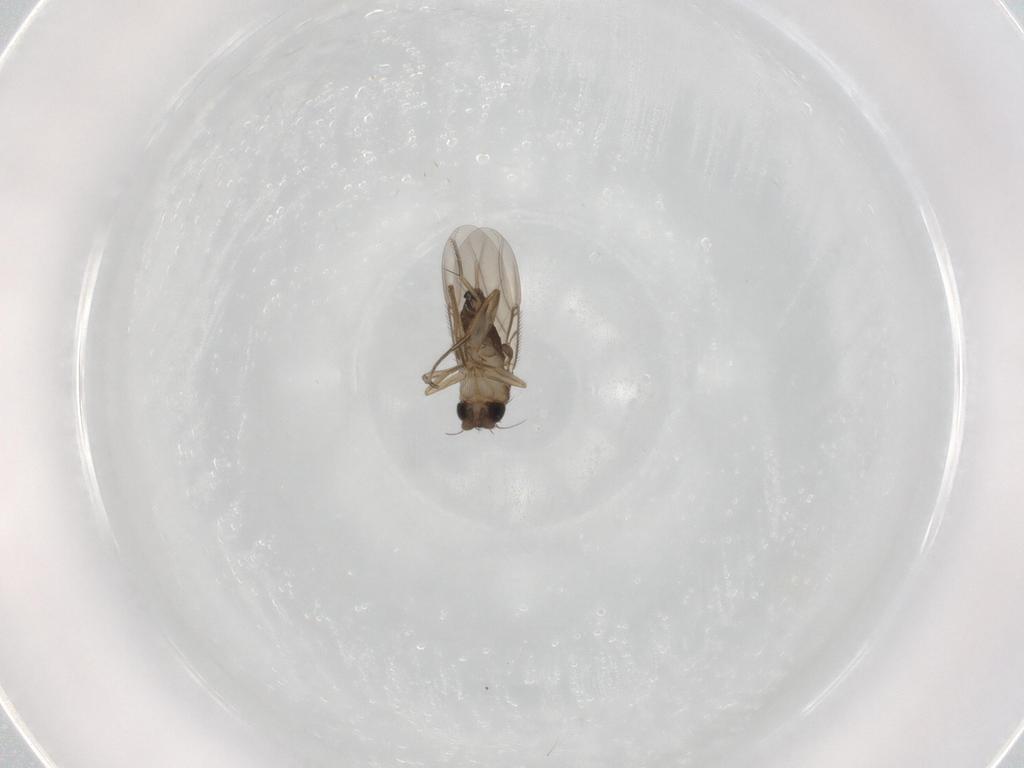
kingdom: Animalia
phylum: Arthropoda
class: Insecta
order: Diptera
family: Phoridae
